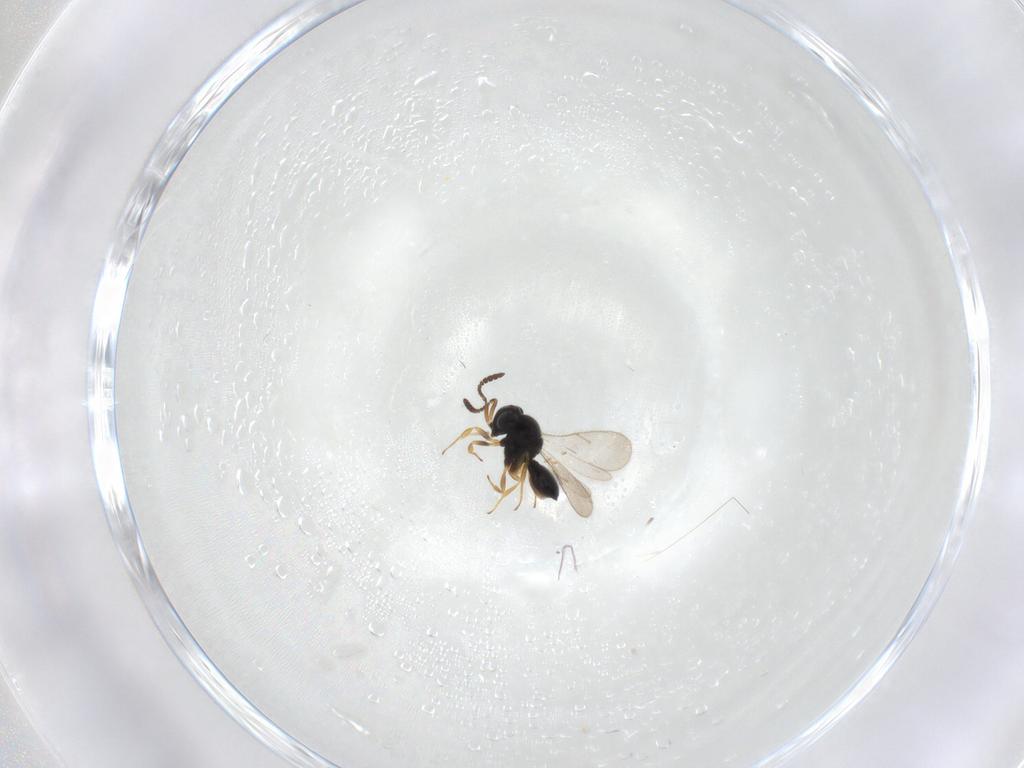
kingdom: Animalia
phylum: Arthropoda
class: Insecta
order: Hymenoptera
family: Scelionidae
